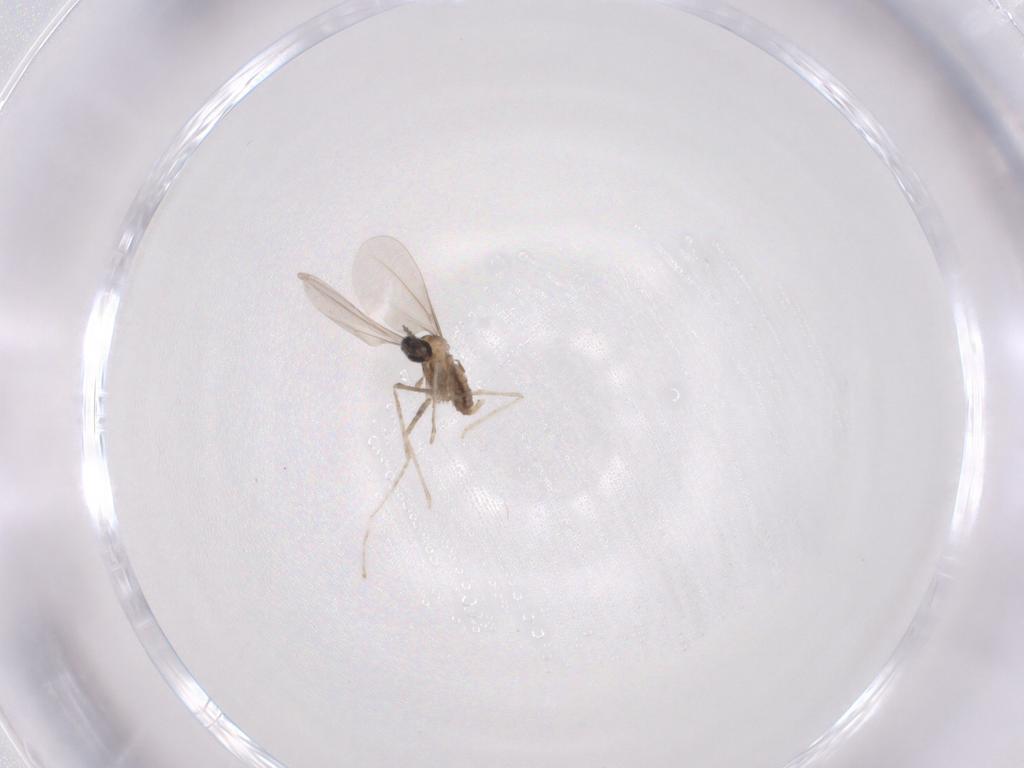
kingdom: Animalia
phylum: Arthropoda
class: Insecta
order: Diptera
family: Cecidomyiidae
